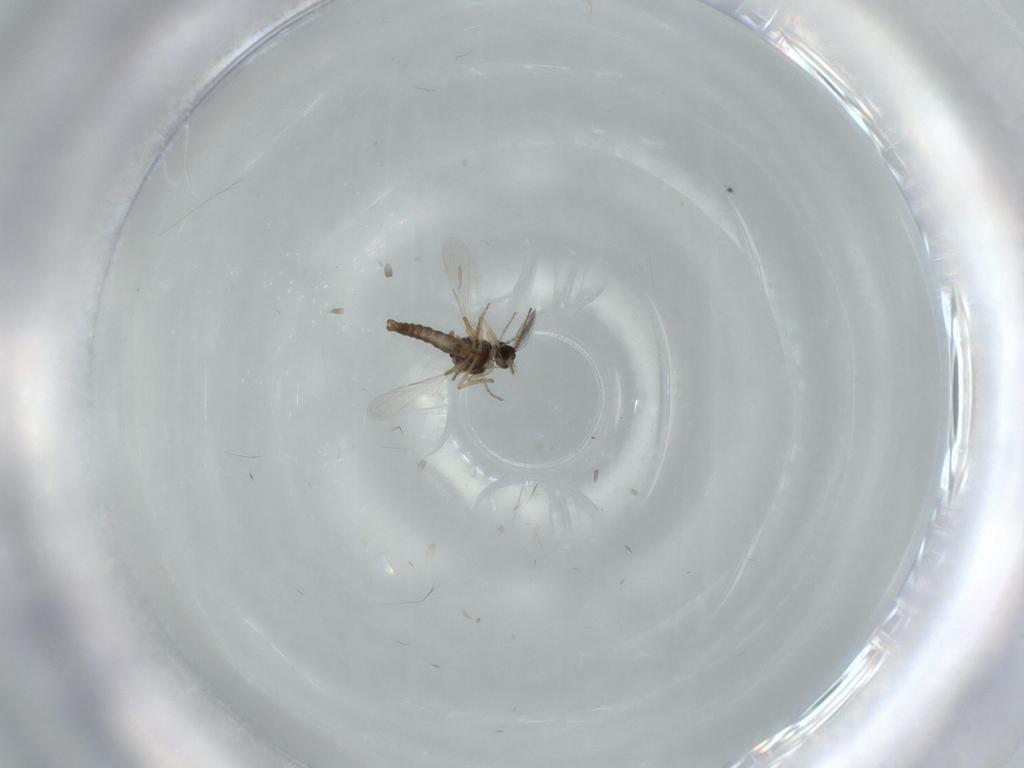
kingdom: Animalia
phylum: Arthropoda
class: Insecta
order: Diptera
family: Ceratopogonidae
